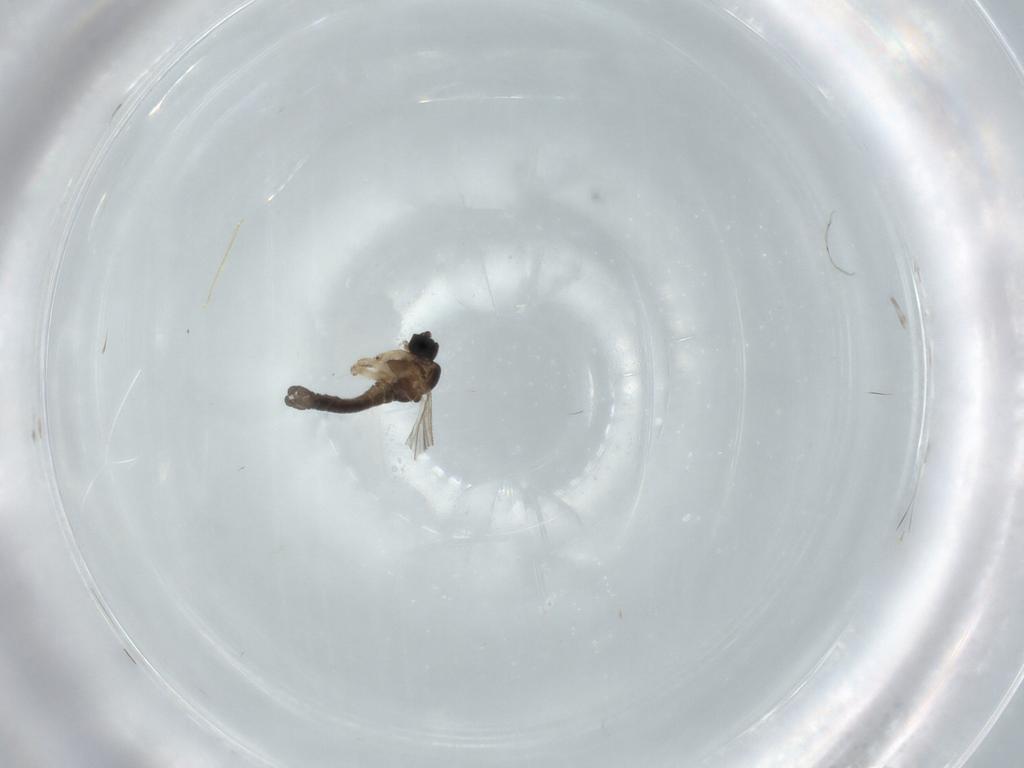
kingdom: Animalia
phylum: Arthropoda
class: Insecta
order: Diptera
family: Sciaridae
